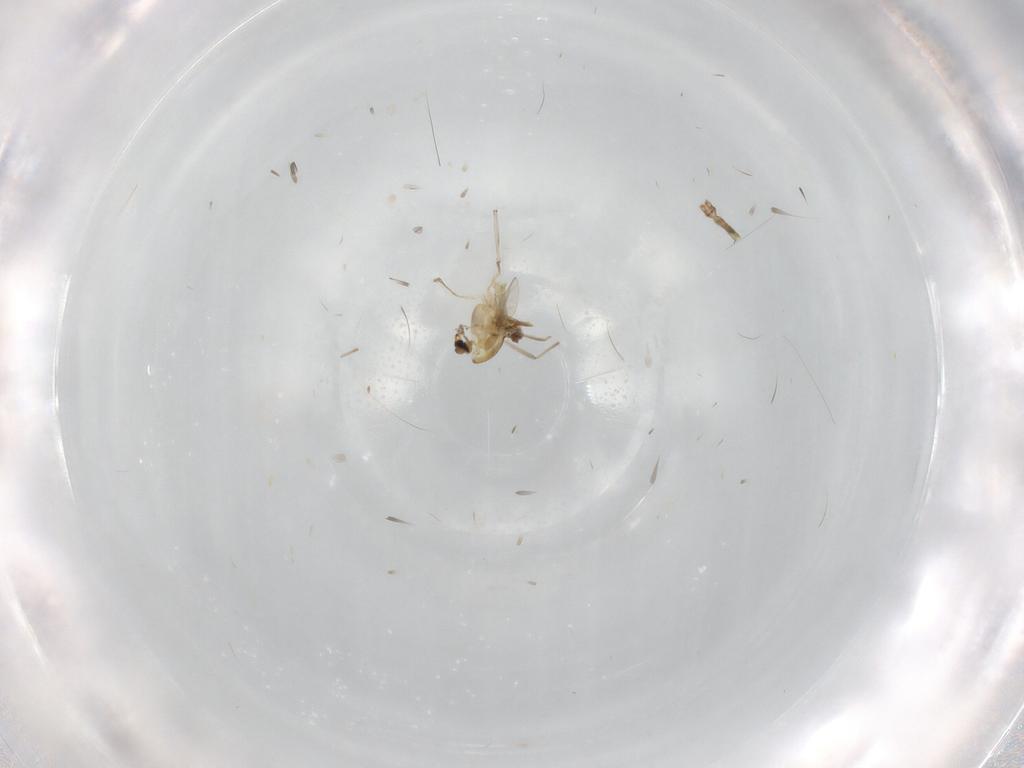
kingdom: Animalia
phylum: Arthropoda
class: Insecta
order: Diptera
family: Chironomidae
